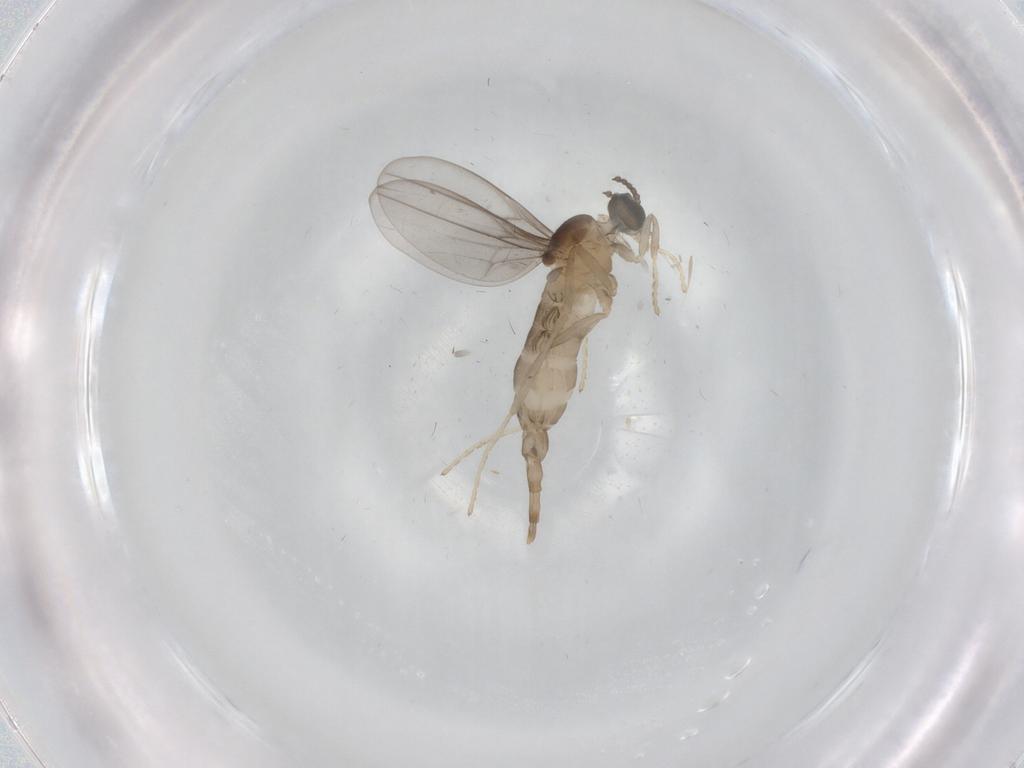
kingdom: Animalia
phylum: Arthropoda
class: Insecta
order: Diptera
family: Cecidomyiidae
